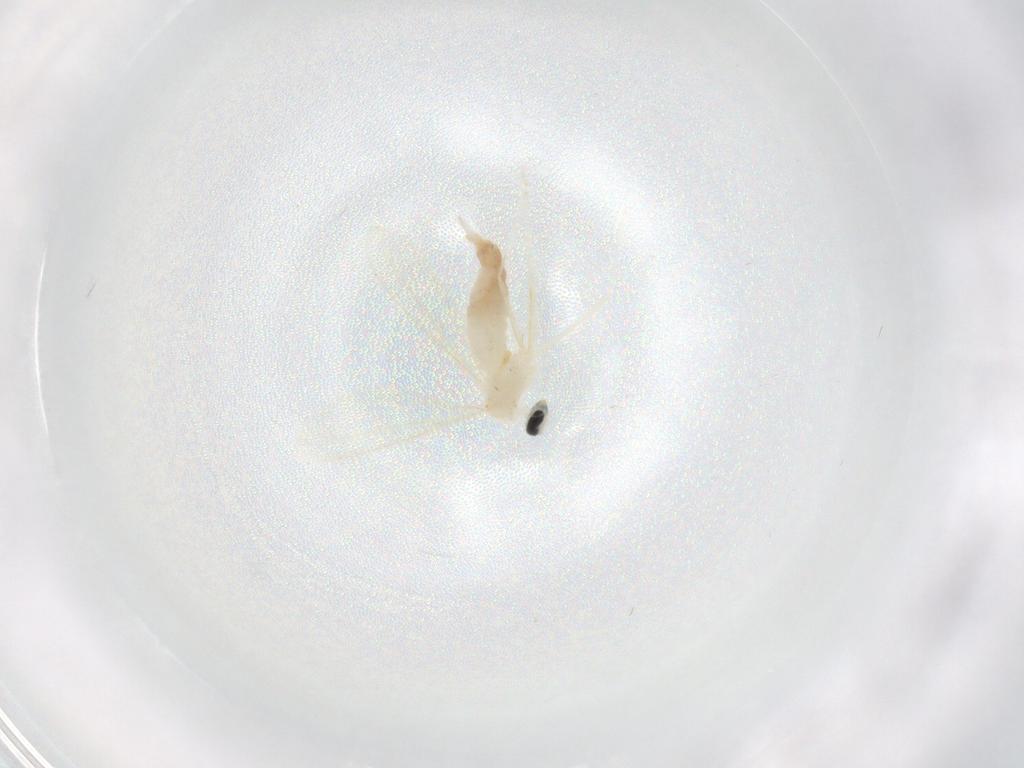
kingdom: Animalia
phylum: Arthropoda
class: Insecta
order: Diptera
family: Cecidomyiidae
